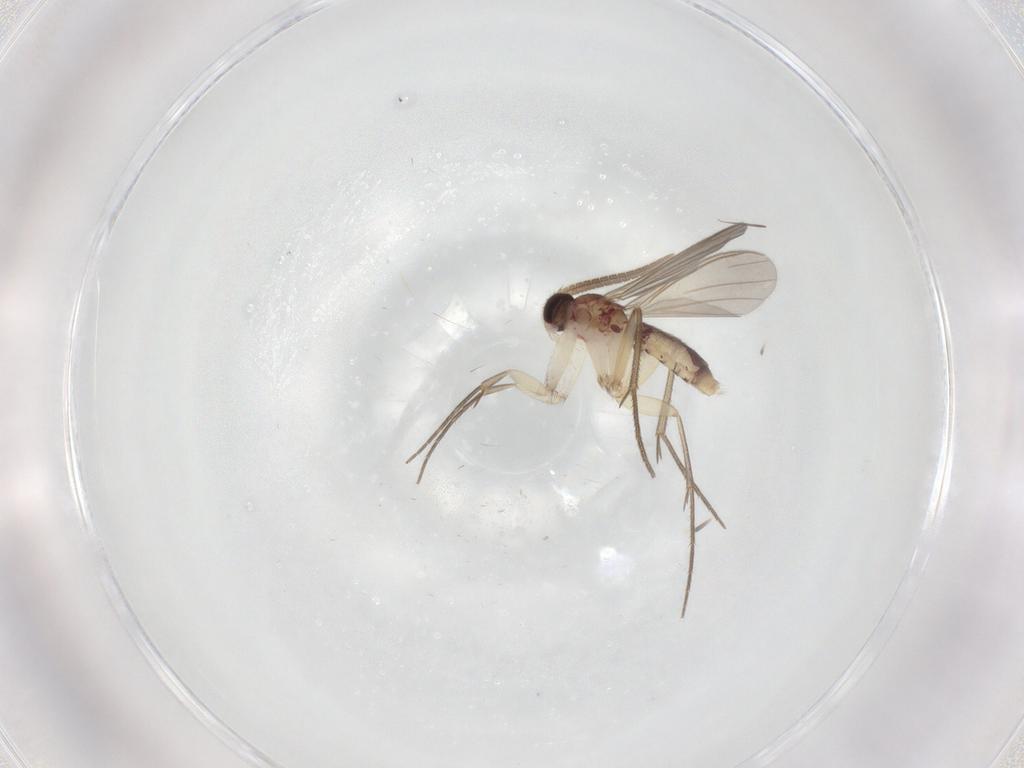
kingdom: Animalia
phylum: Arthropoda
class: Insecta
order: Diptera
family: Mycetophilidae
